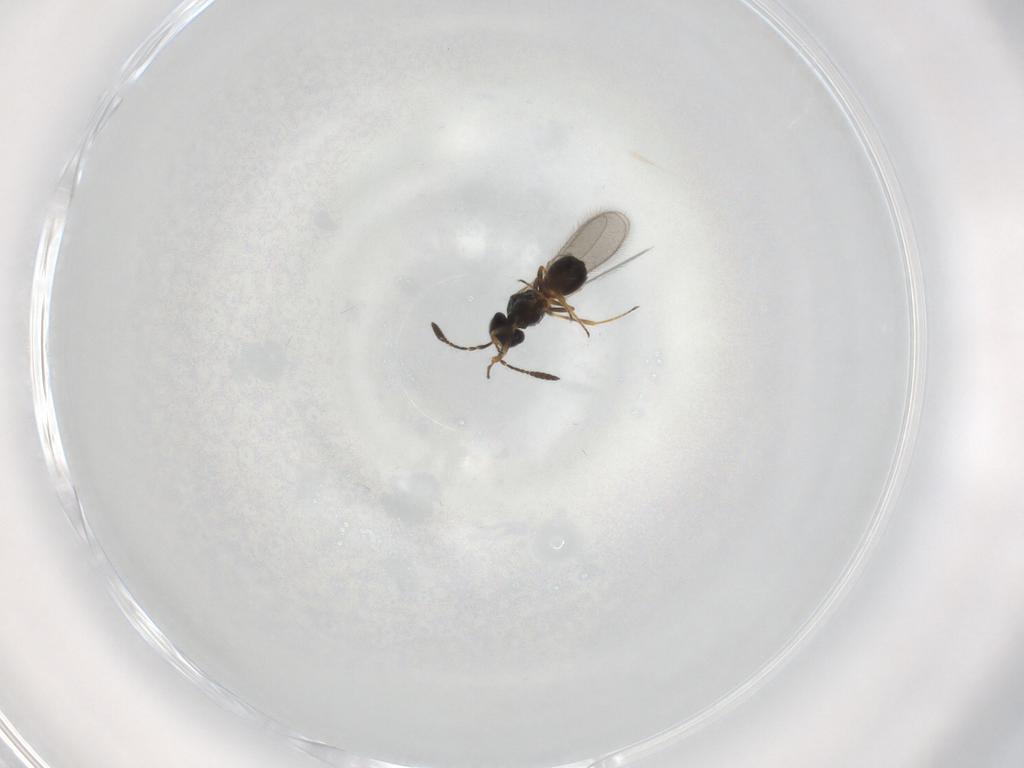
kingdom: Animalia
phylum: Arthropoda
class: Insecta
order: Hymenoptera
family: Scelionidae
